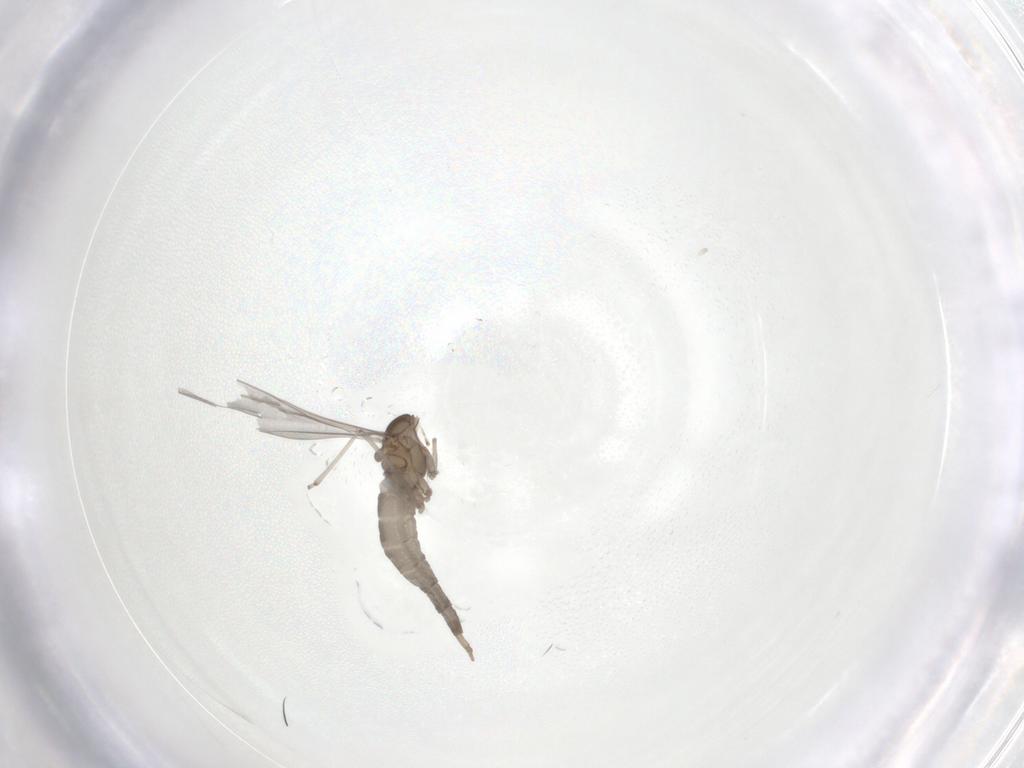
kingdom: Animalia
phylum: Arthropoda
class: Insecta
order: Diptera
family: Cecidomyiidae
